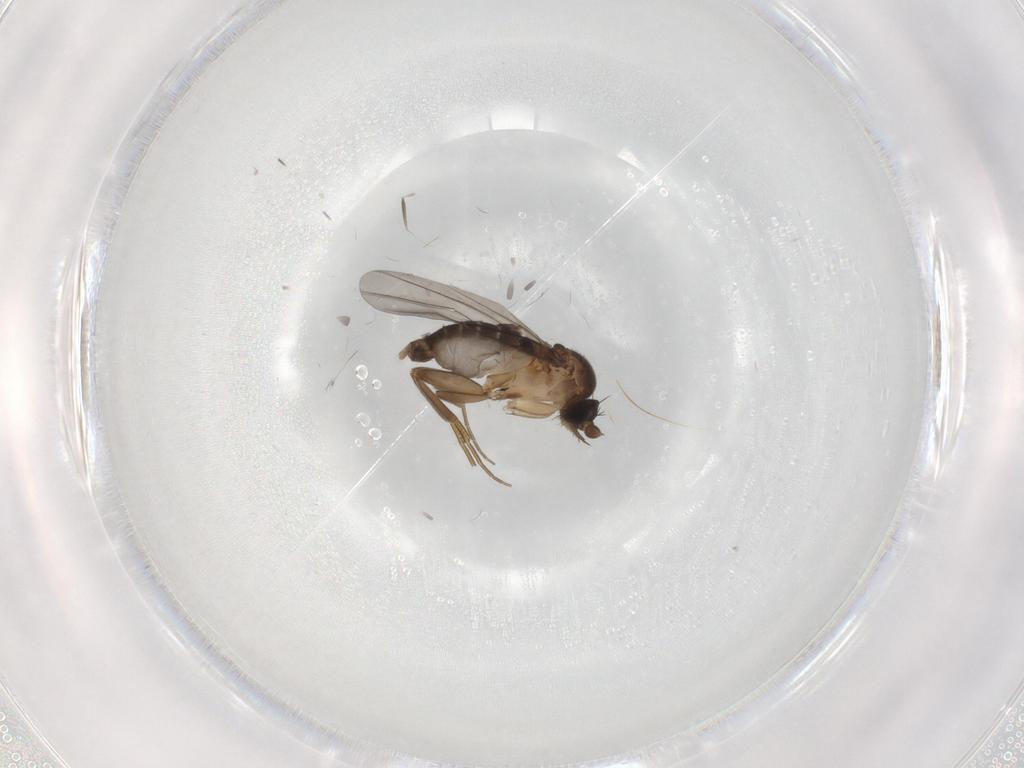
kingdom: Animalia
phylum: Arthropoda
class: Insecta
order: Diptera
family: Phoridae
